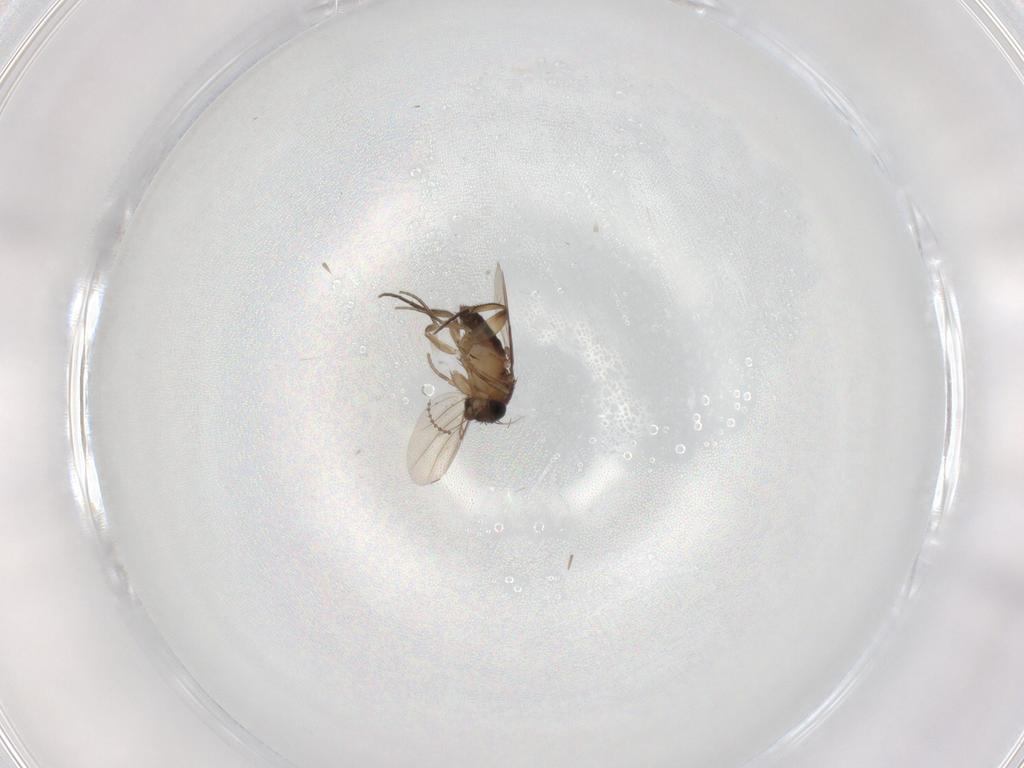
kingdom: Animalia
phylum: Arthropoda
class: Insecta
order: Diptera
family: Phoridae
